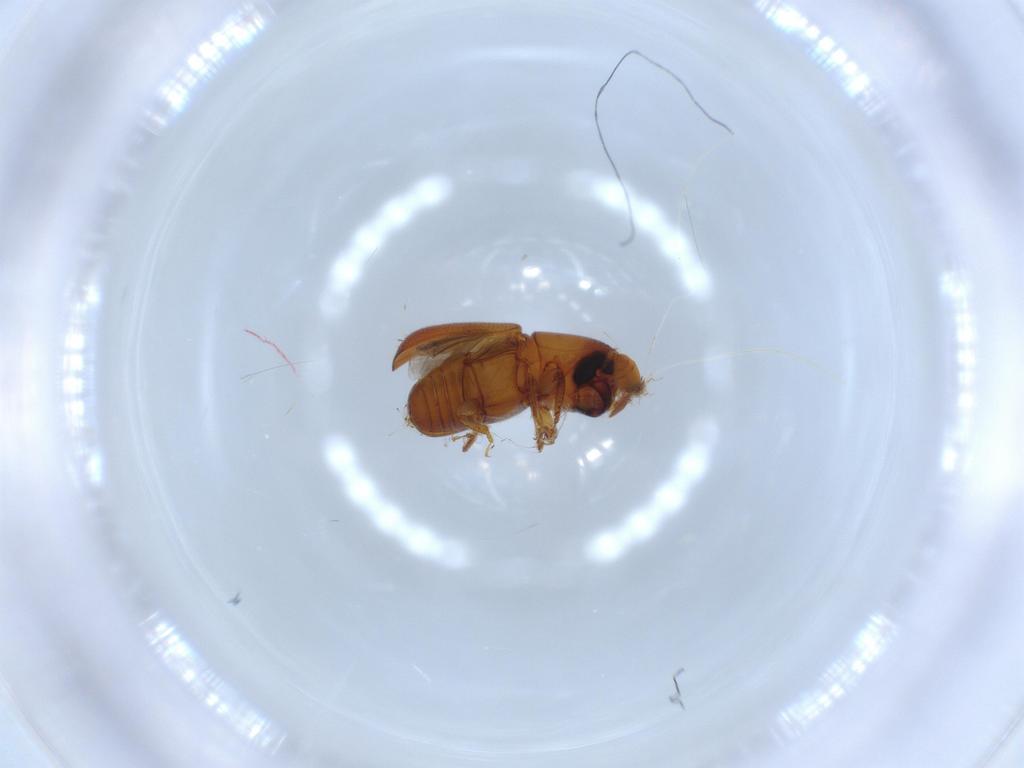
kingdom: Animalia
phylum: Arthropoda
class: Insecta
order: Coleoptera
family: Curculionidae
